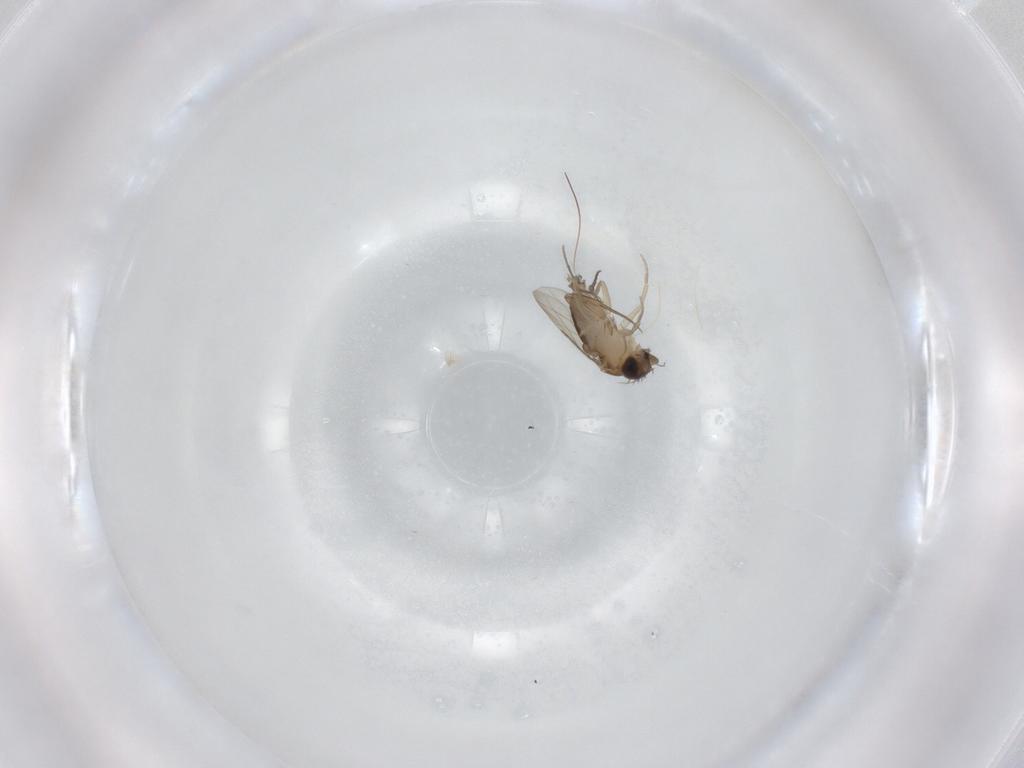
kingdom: Animalia
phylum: Arthropoda
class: Insecta
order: Diptera
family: Phoridae
